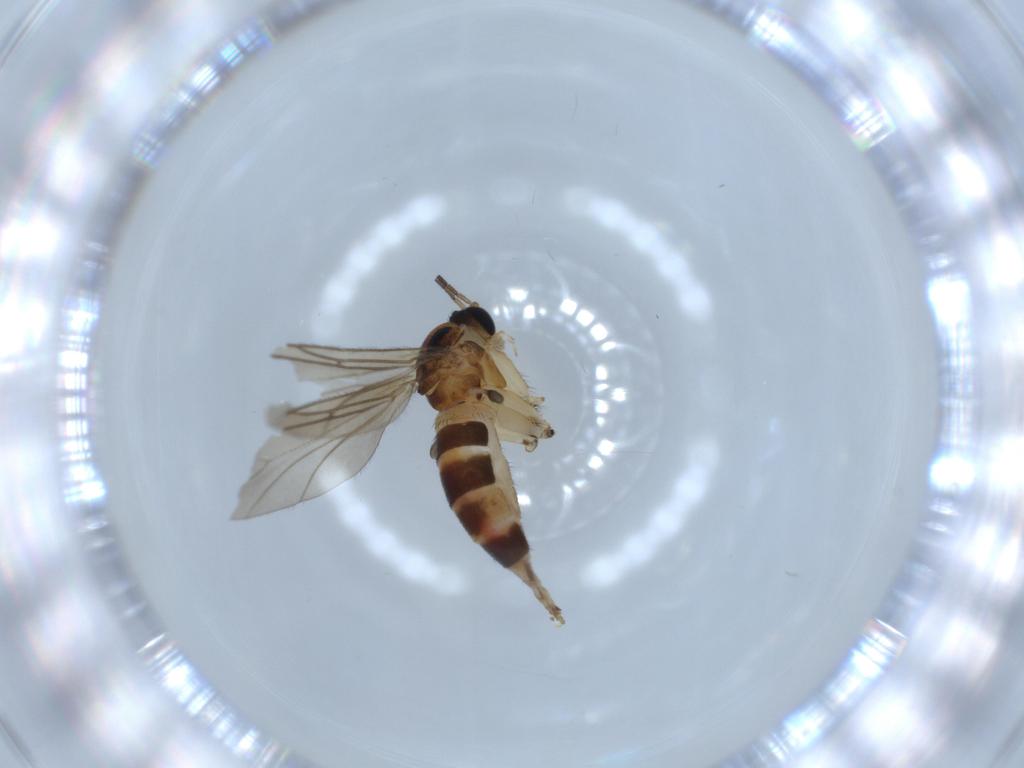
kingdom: Animalia
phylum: Arthropoda
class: Insecta
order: Diptera
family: Sciaridae
